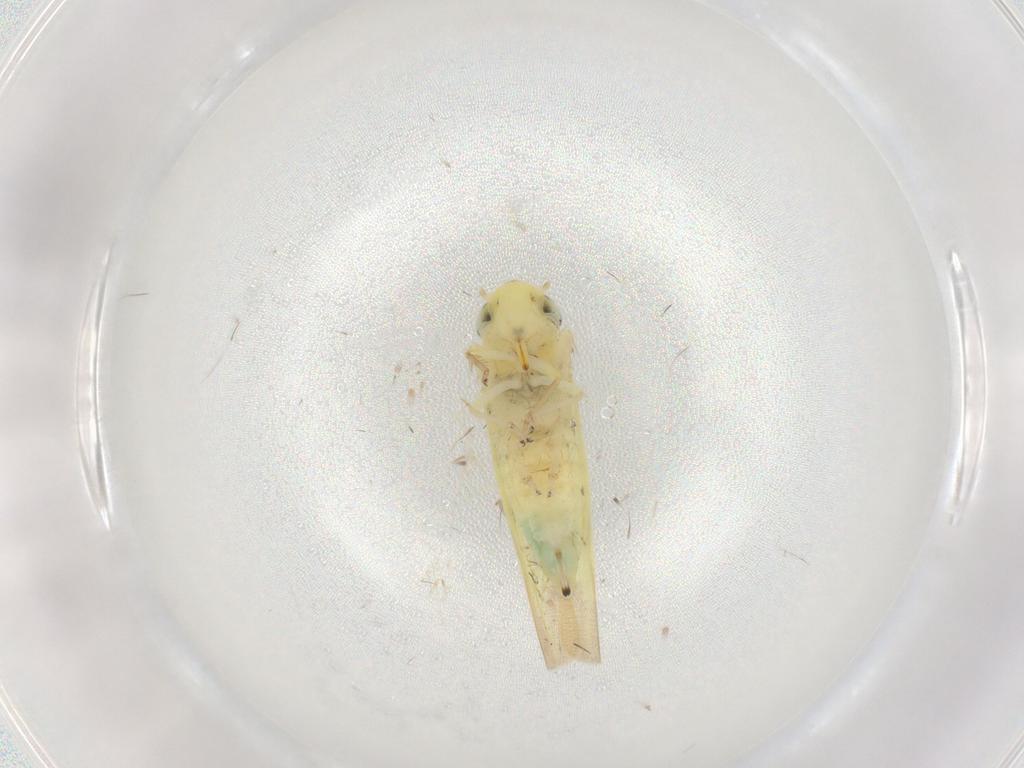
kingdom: Animalia
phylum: Arthropoda
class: Insecta
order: Hemiptera
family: Cicadellidae
